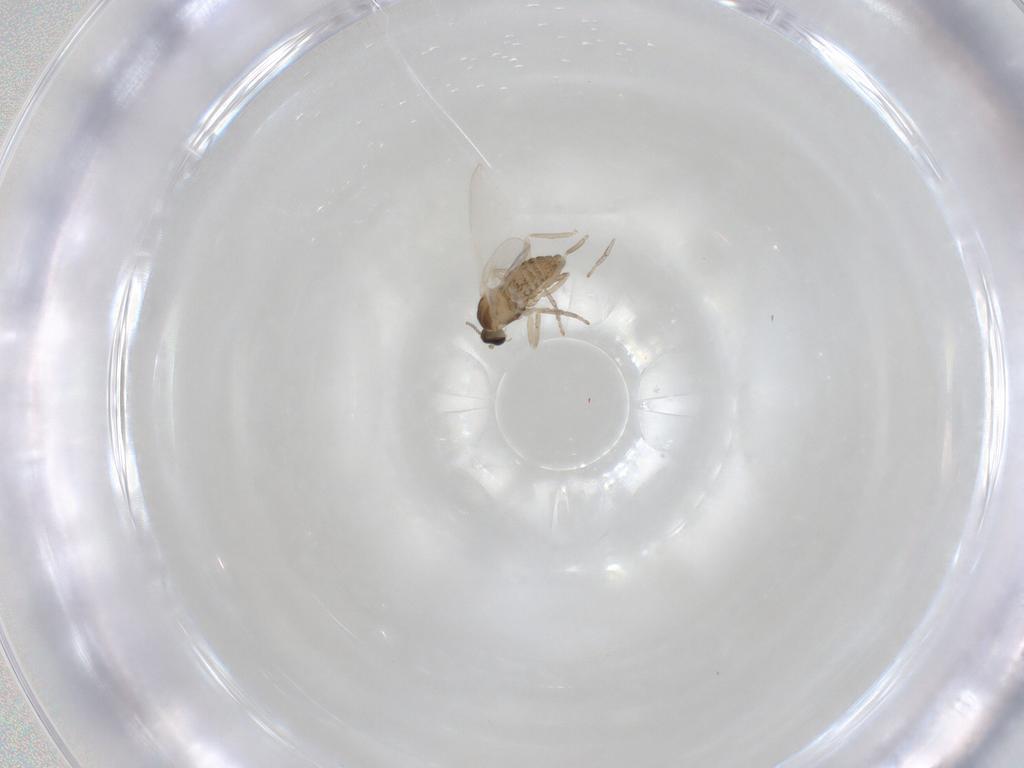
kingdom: Animalia
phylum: Arthropoda
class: Insecta
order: Diptera
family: Cecidomyiidae
